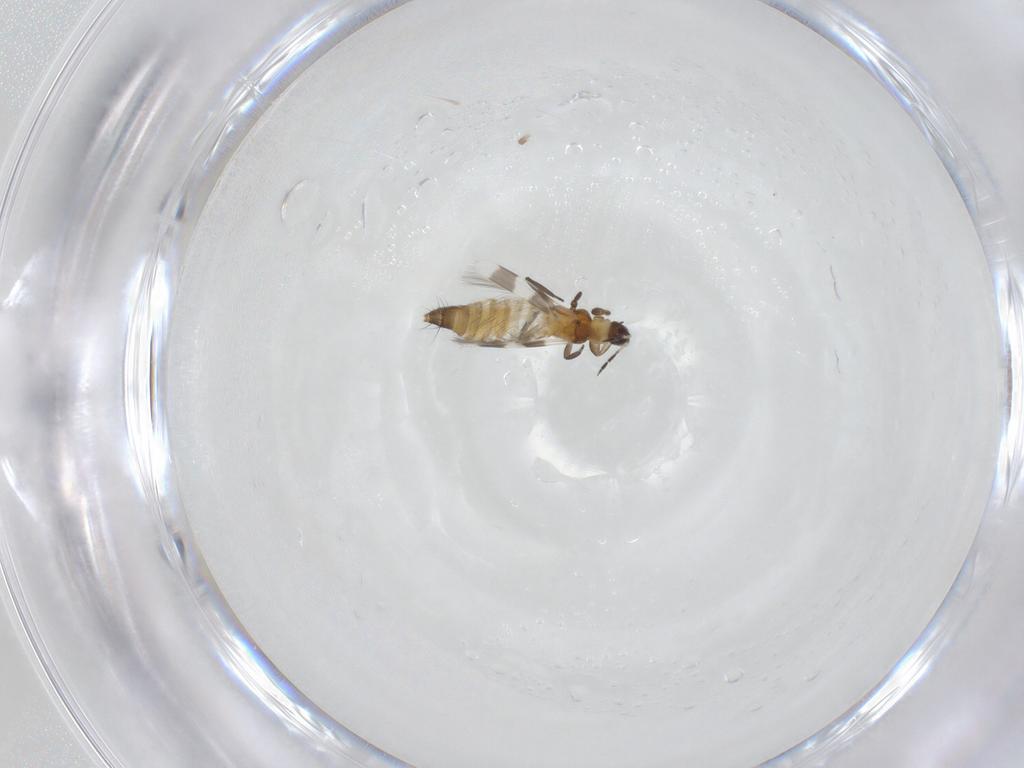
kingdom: Animalia
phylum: Arthropoda
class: Insecta
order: Thysanoptera
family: Aeolothripidae
